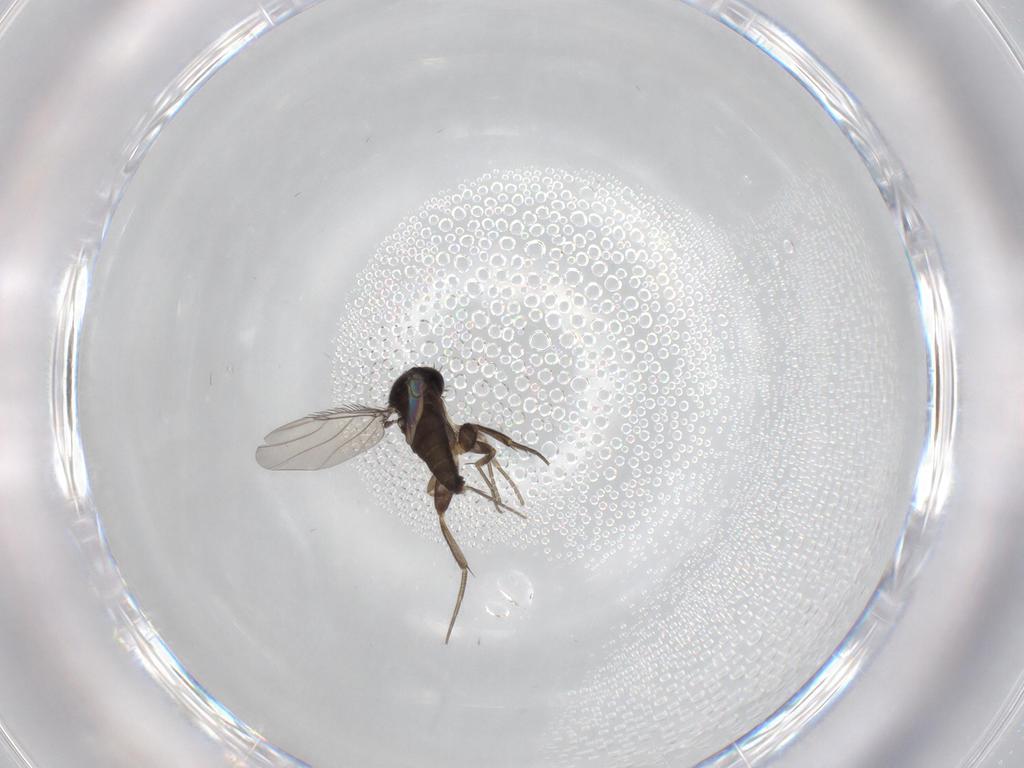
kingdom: Animalia
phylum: Arthropoda
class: Insecta
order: Diptera
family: Phoridae
